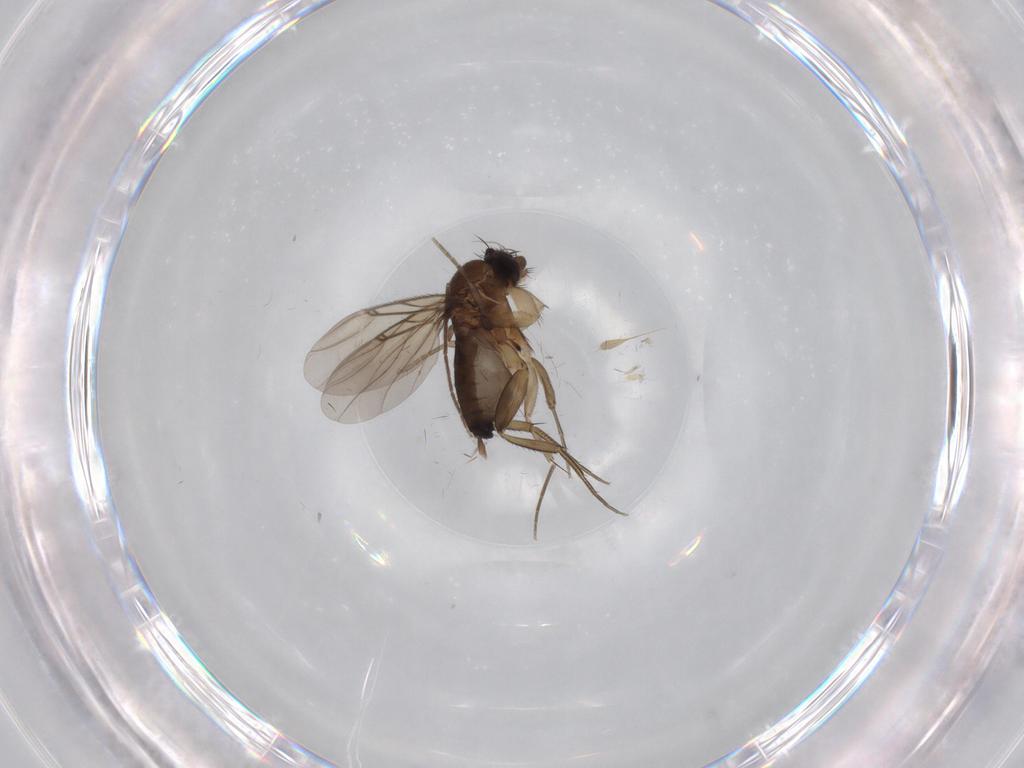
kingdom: Animalia
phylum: Arthropoda
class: Insecta
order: Diptera
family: Phoridae
